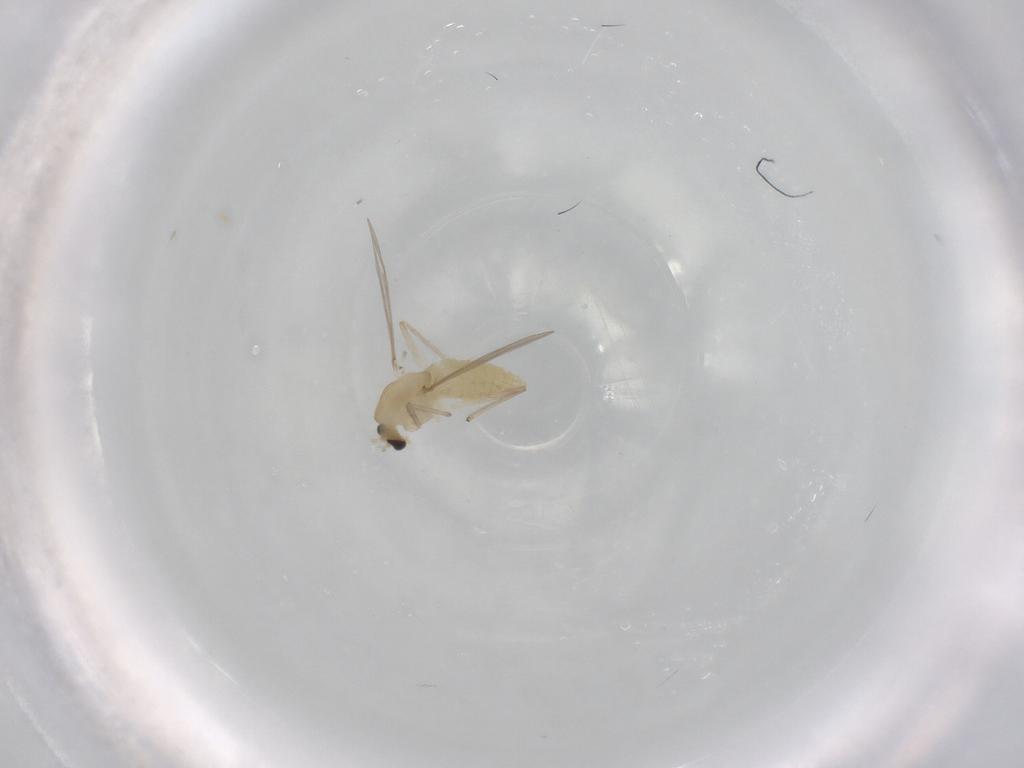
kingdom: Animalia
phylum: Arthropoda
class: Insecta
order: Diptera
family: Chironomidae
